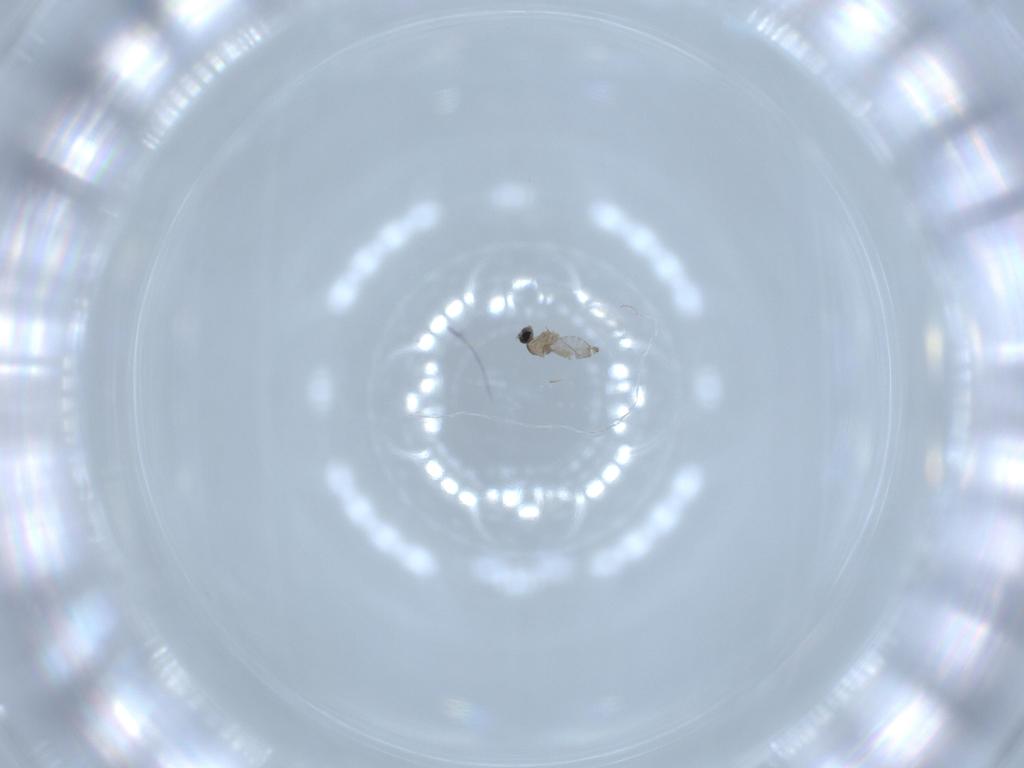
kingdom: Animalia
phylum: Arthropoda
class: Insecta
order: Diptera
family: Cecidomyiidae
